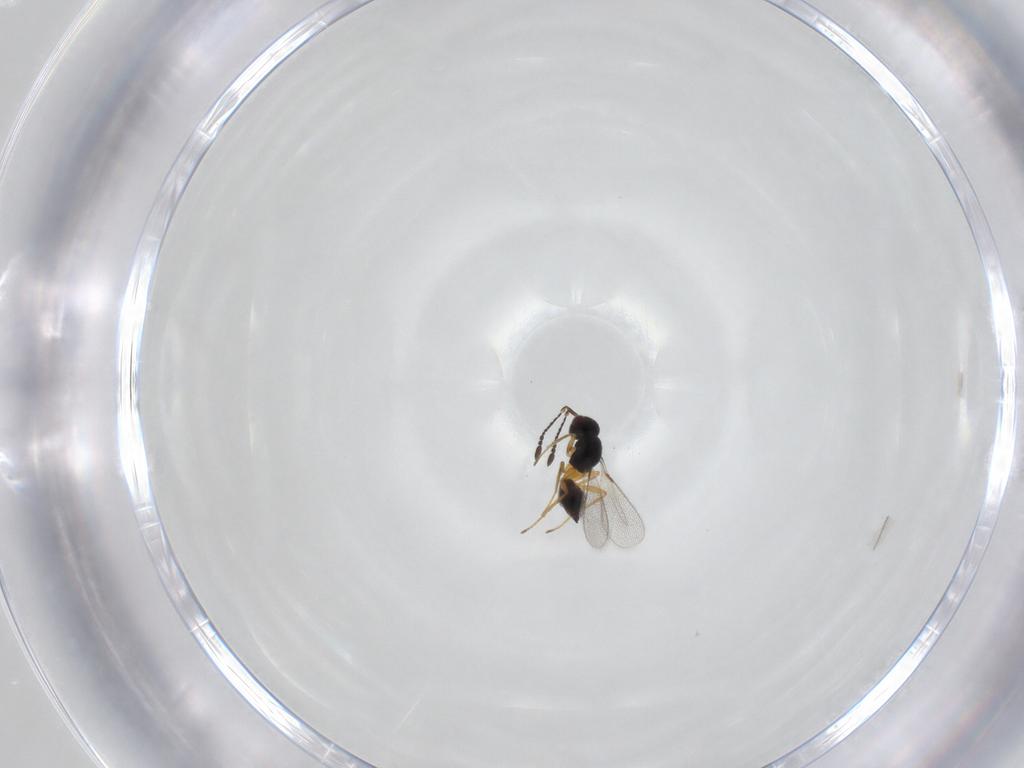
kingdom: Animalia
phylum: Arthropoda
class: Insecta
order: Hymenoptera
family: Mymaridae
